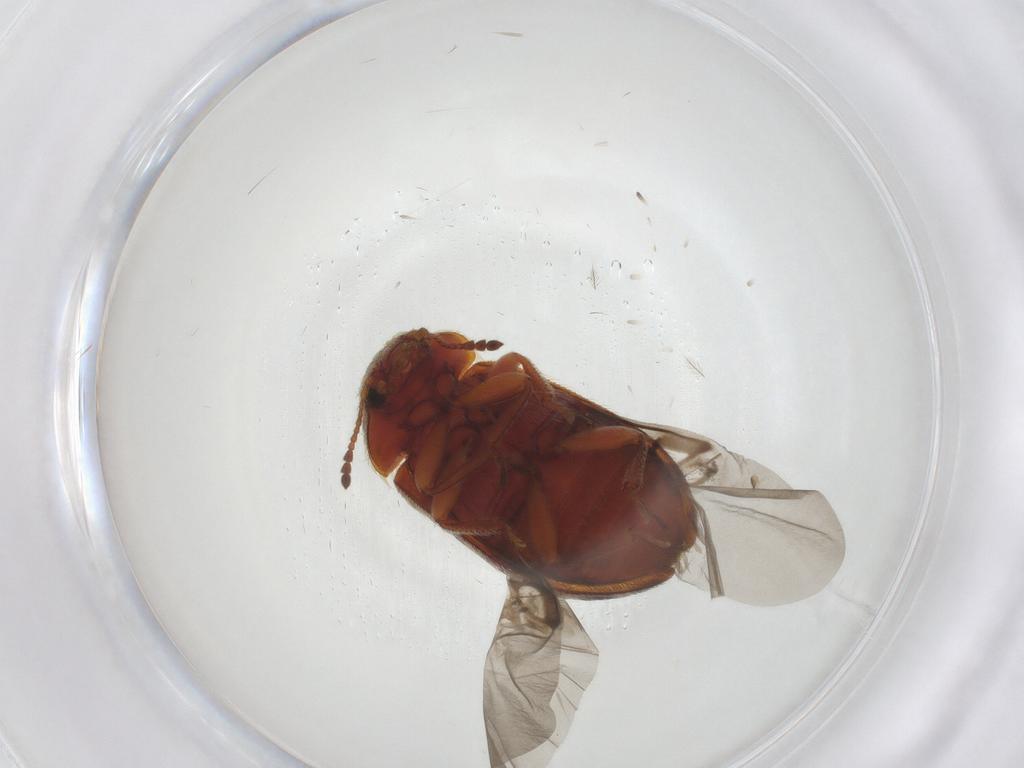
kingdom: Animalia
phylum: Arthropoda
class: Insecta
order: Coleoptera
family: Byturidae
